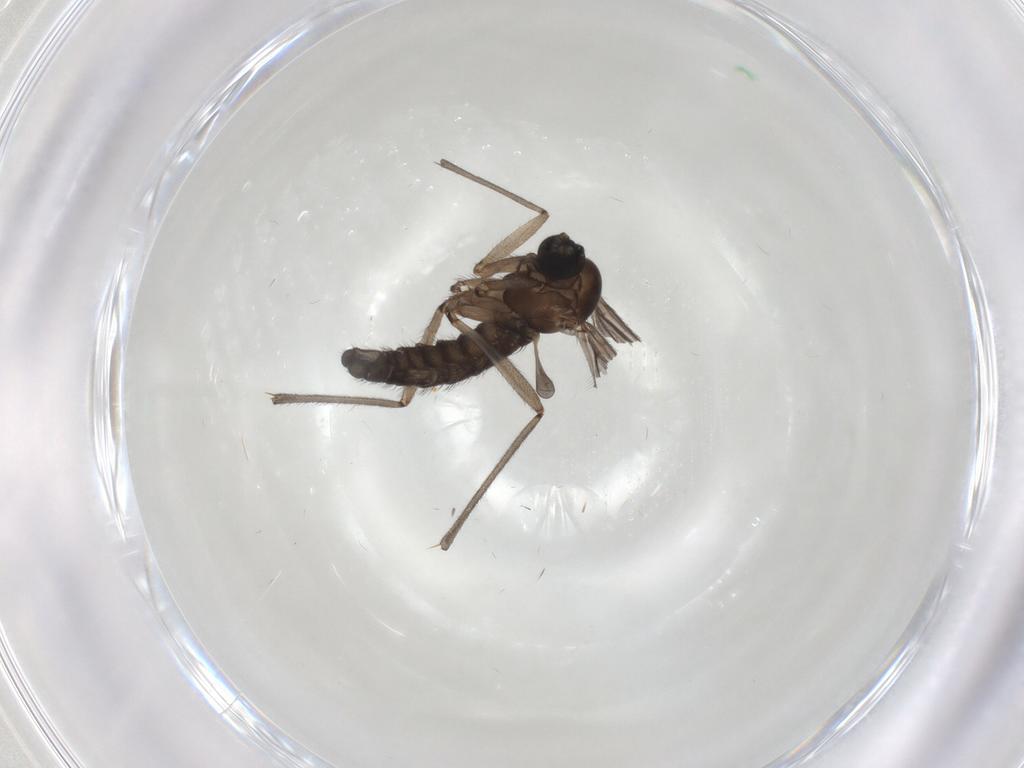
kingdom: Animalia
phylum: Arthropoda
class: Insecta
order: Diptera
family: Sciaridae
